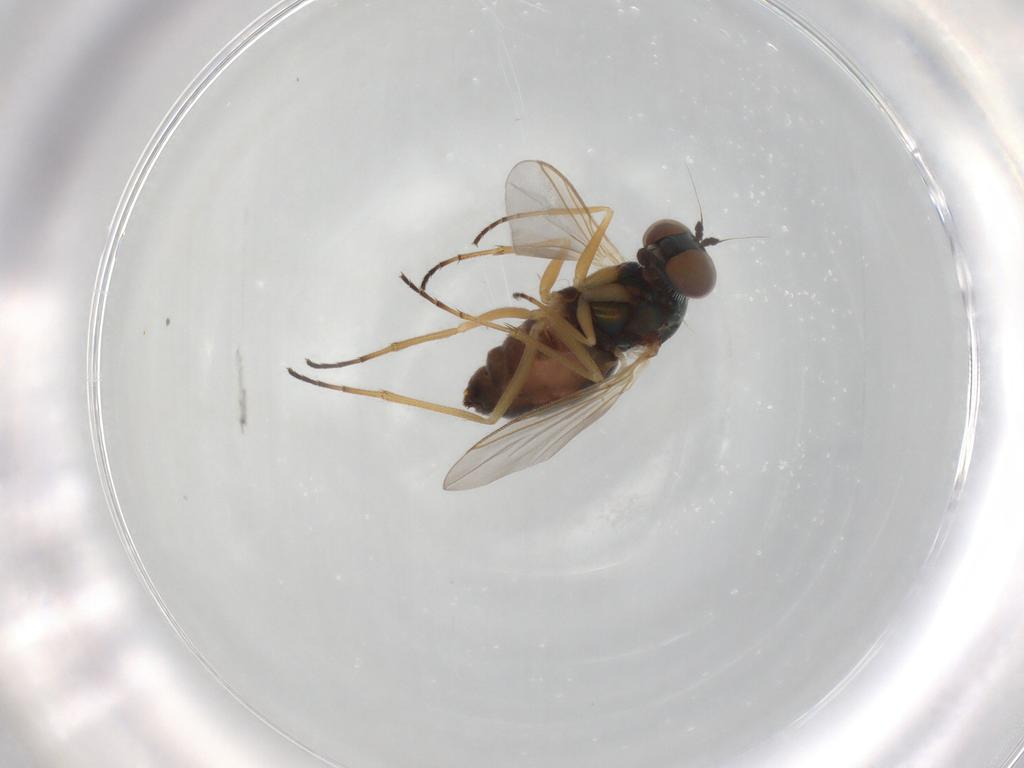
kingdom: Animalia
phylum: Arthropoda
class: Insecta
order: Diptera
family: Dolichopodidae
